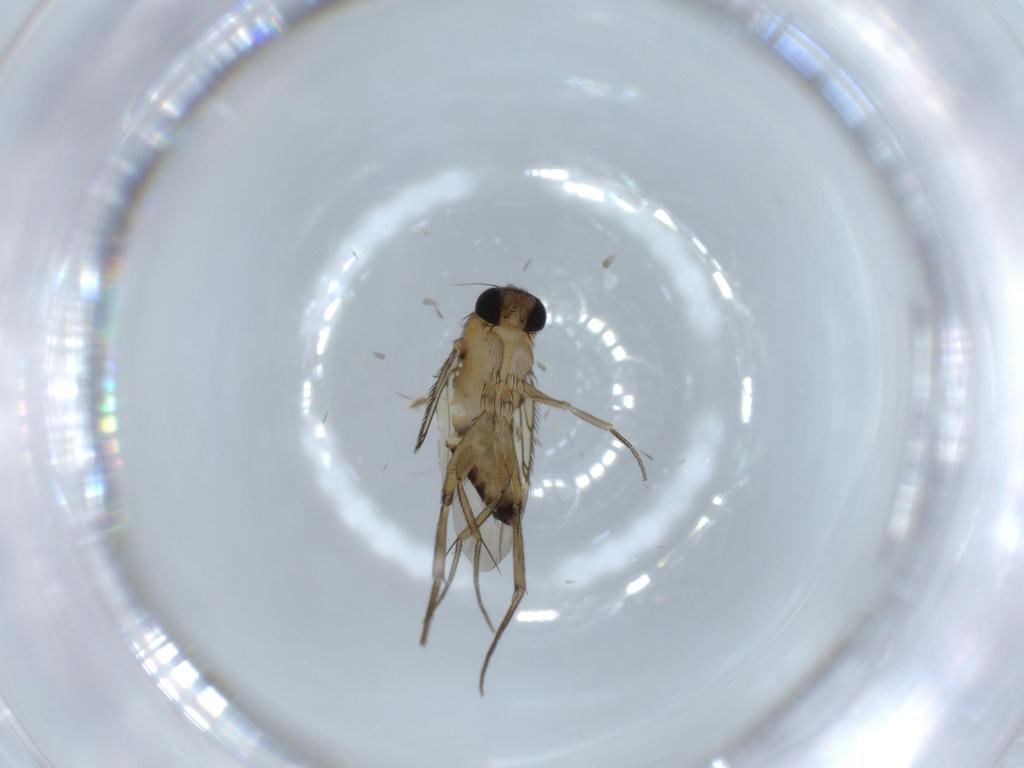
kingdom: Animalia
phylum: Arthropoda
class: Insecta
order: Diptera
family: Phoridae
